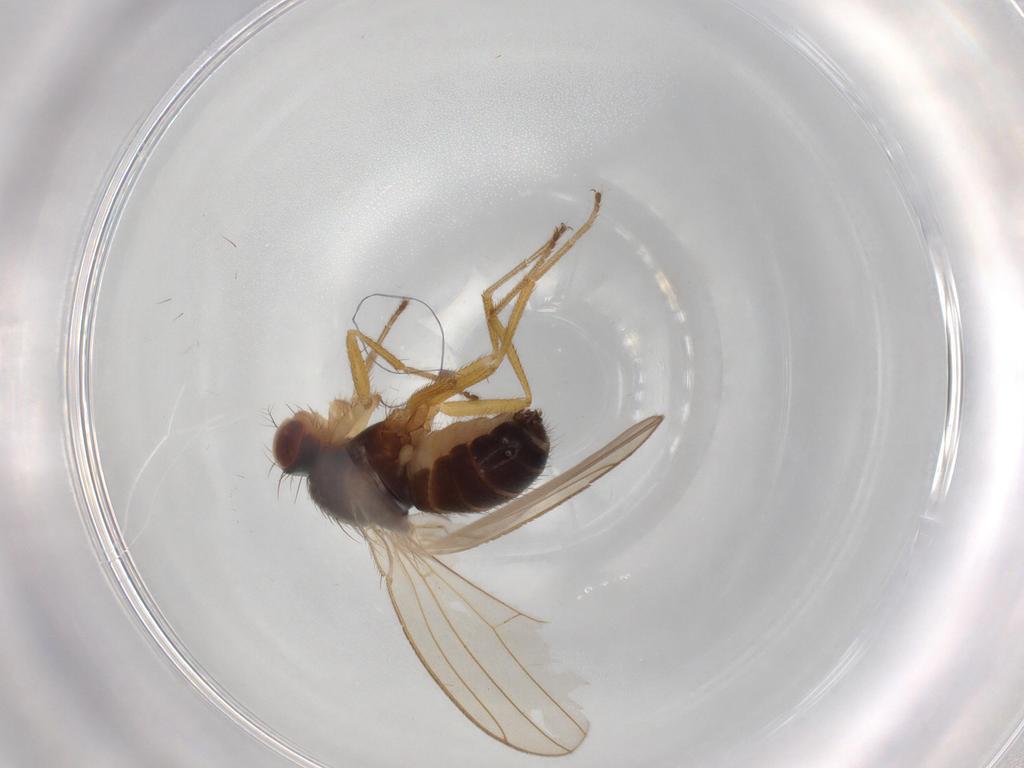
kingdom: Animalia
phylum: Arthropoda
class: Insecta
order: Diptera
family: Drosophilidae
